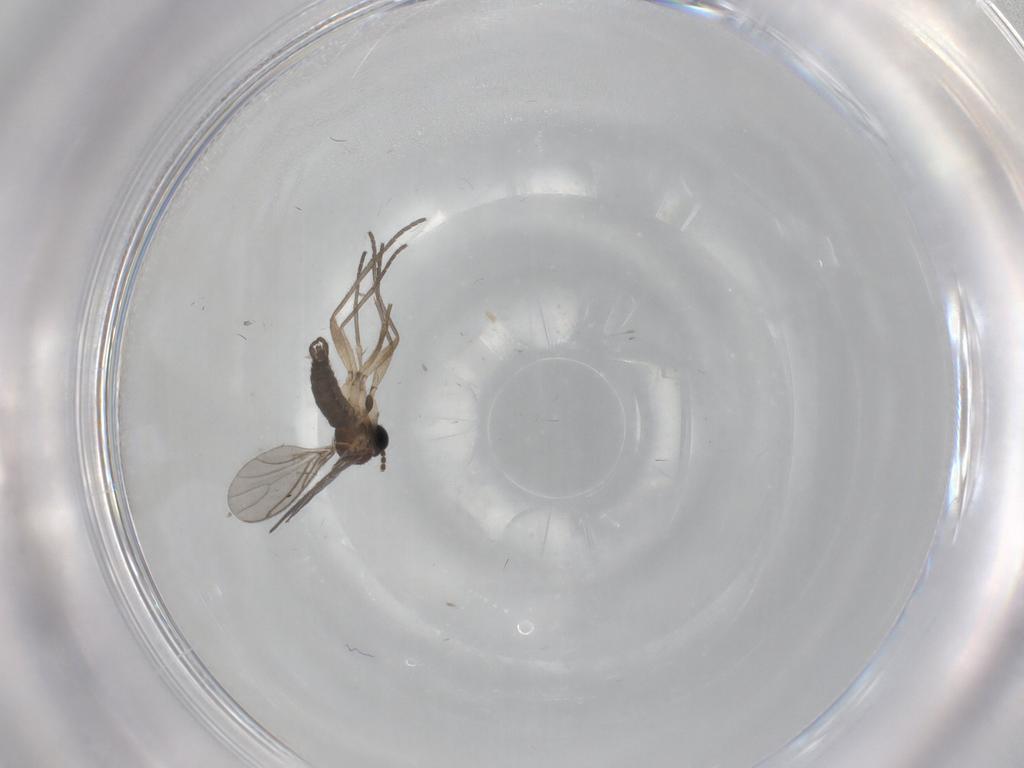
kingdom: Animalia
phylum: Arthropoda
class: Insecta
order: Diptera
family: Sciaridae
